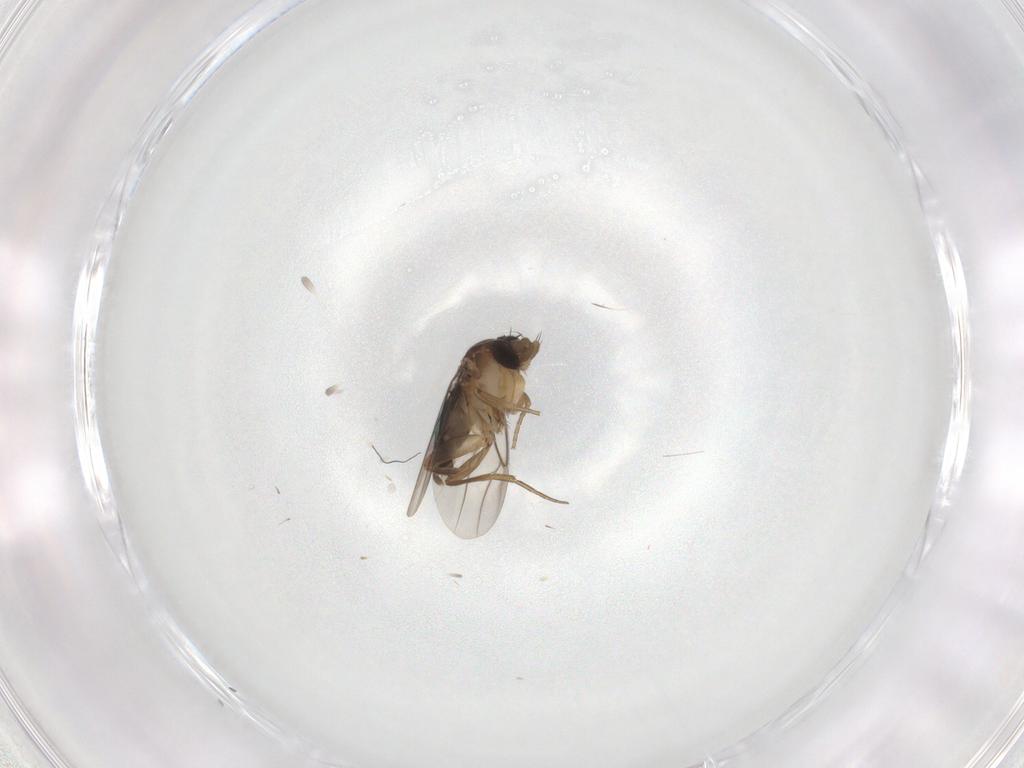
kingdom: Animalia
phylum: Arthropoda
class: Insecta
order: Diptera
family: Phoridae
